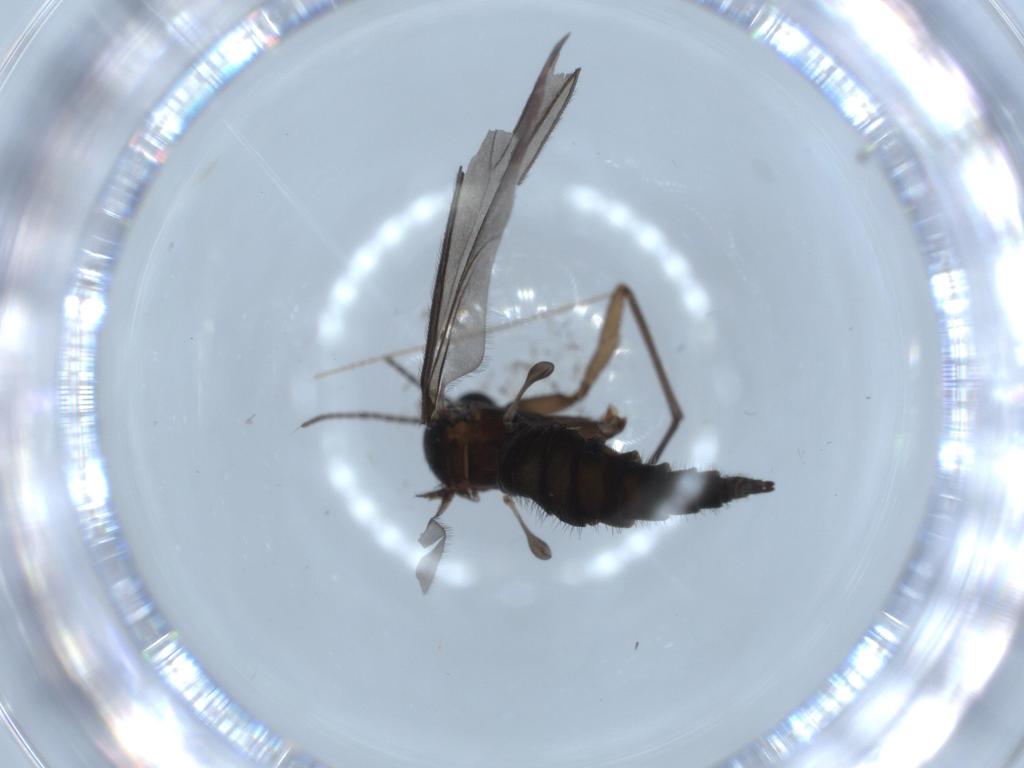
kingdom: Animalia
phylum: Arthropoda
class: Insecta
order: Diptera
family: Sciaridae
